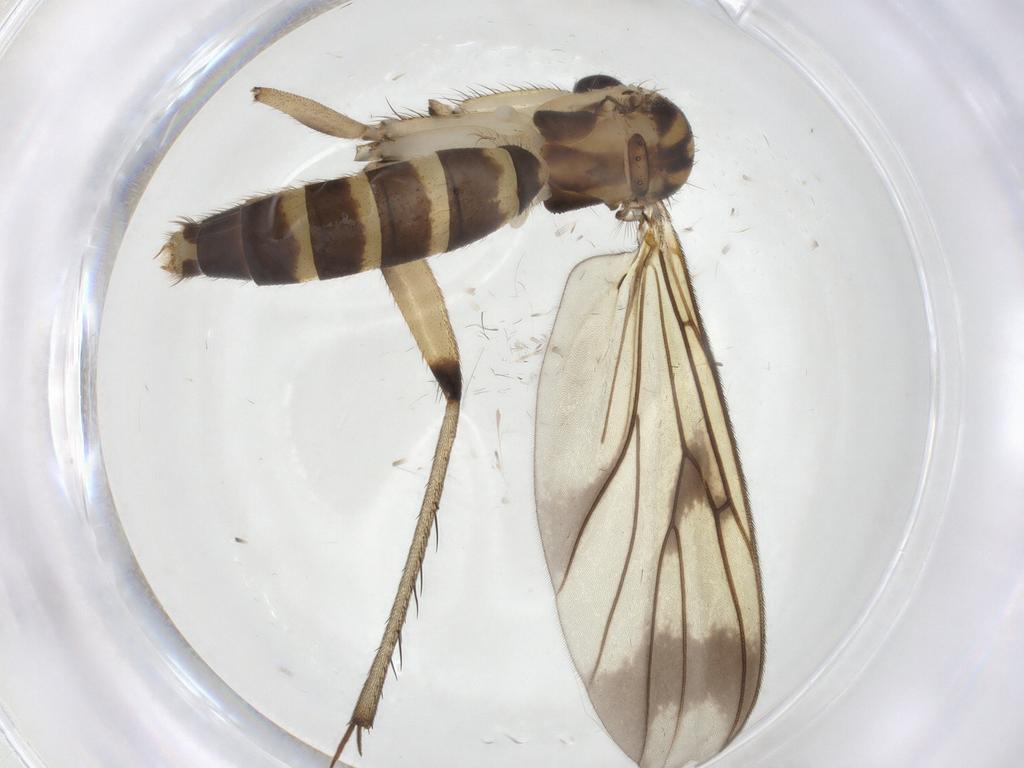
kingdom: Animalia
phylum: Arthropoda
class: Insecta
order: Diptera
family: Mycetophilidae
